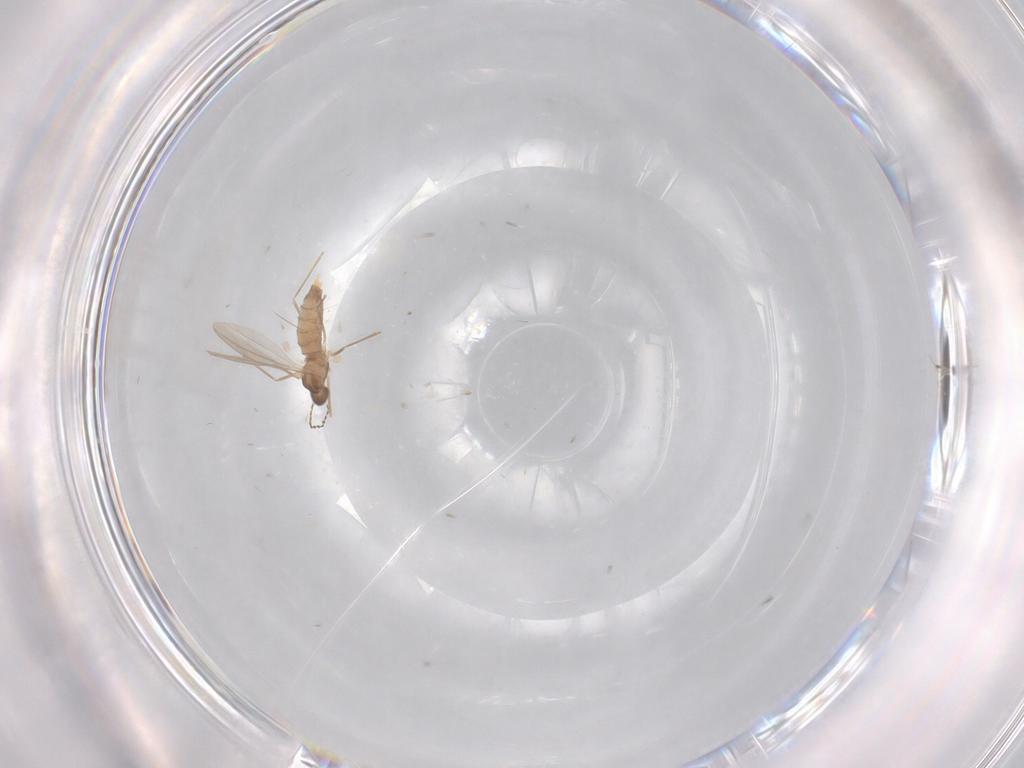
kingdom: Animalia
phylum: Arthropoda
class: Insecta
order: Diptera
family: Cecidomyiidae
